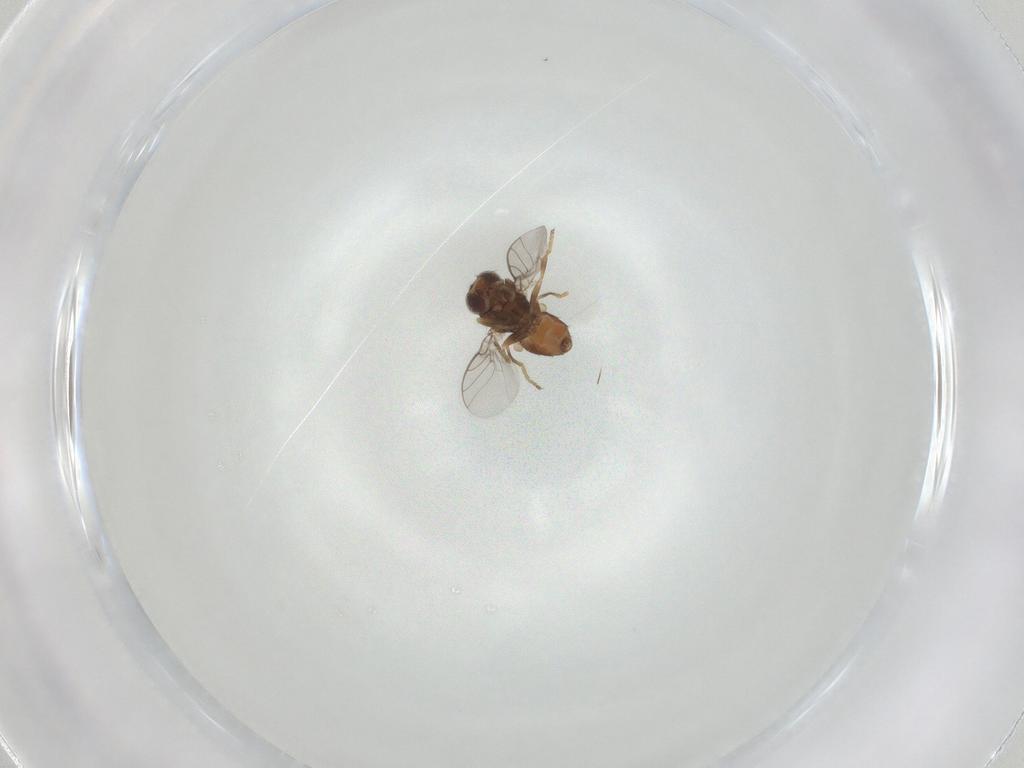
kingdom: Animalia
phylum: Arthropoda
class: Insecta
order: Diptera
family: Chloropidae
